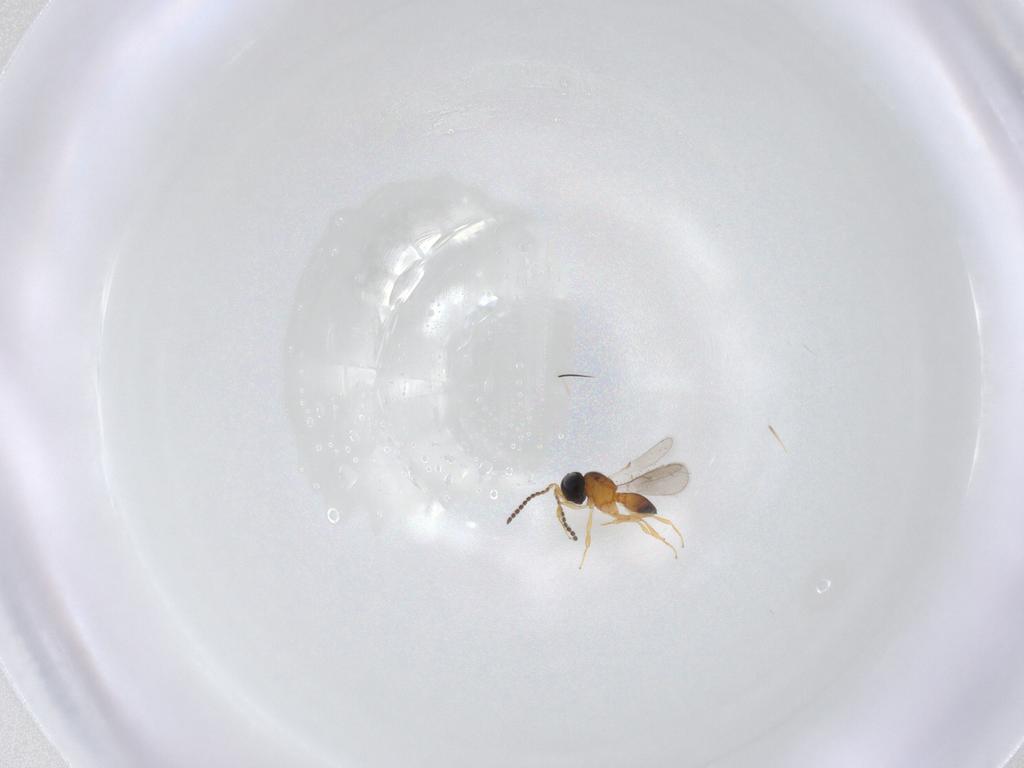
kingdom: Animalia
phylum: Arthropoda
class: Insecta
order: Hymenoptera
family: Scelionidae
